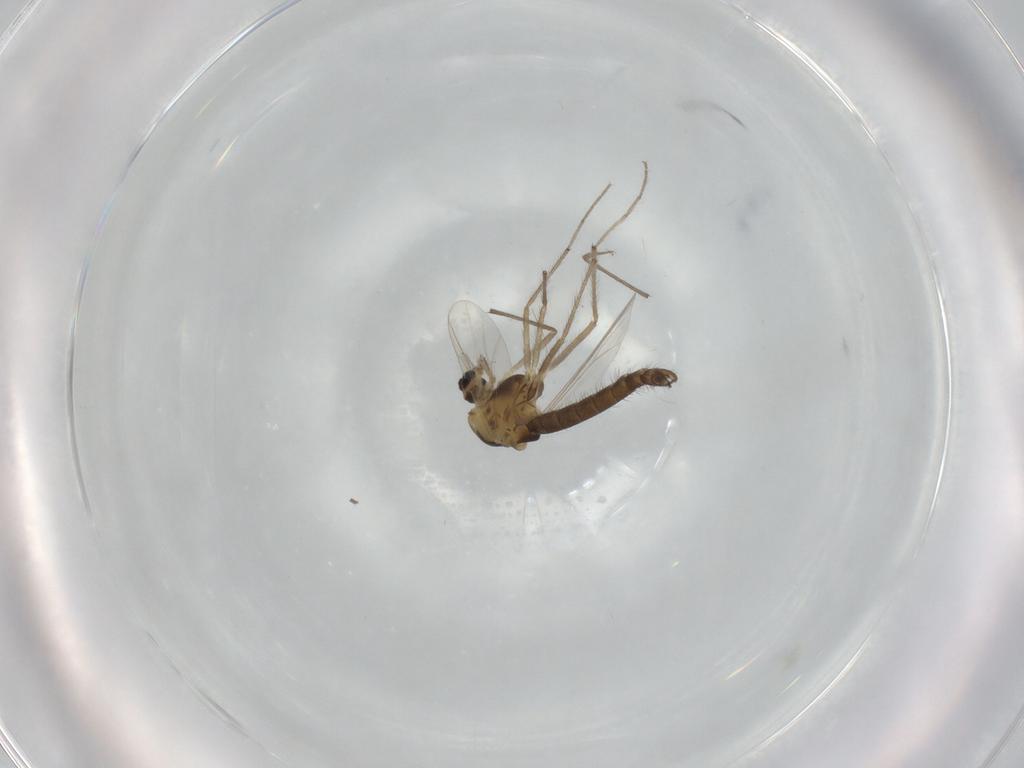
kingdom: Animalia
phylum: Arthropoda
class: Insecta
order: Diptera
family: Chironomidae
